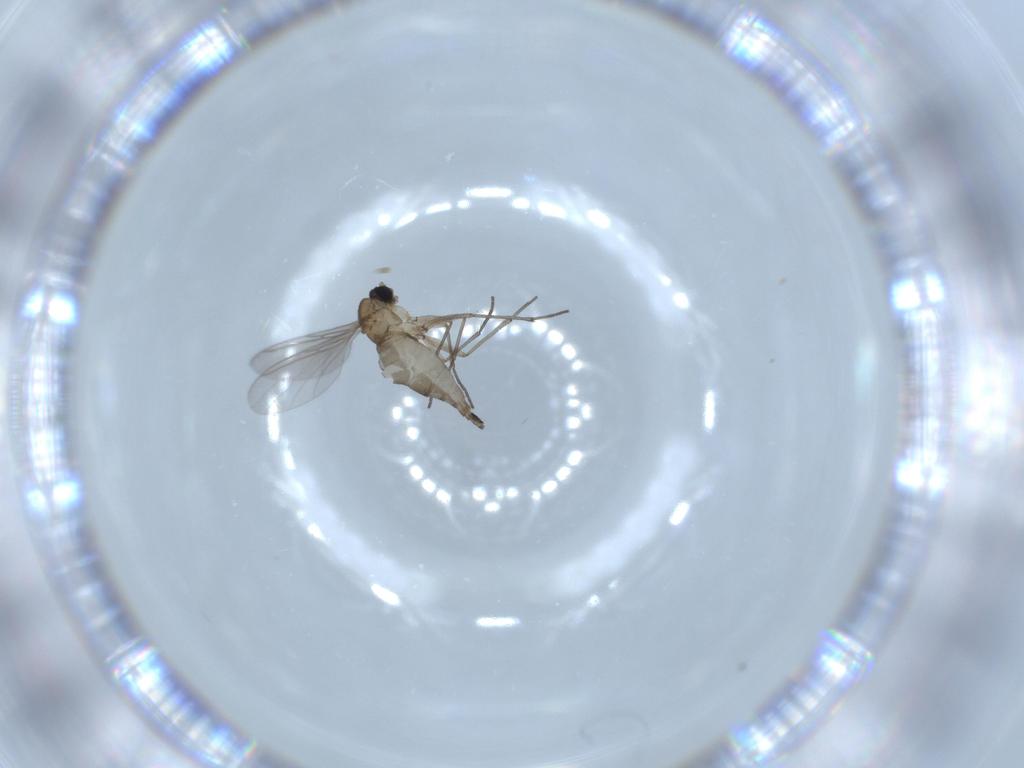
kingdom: Animalia
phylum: Arthropoda
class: Insecta
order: Diptera
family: Sciaridae
